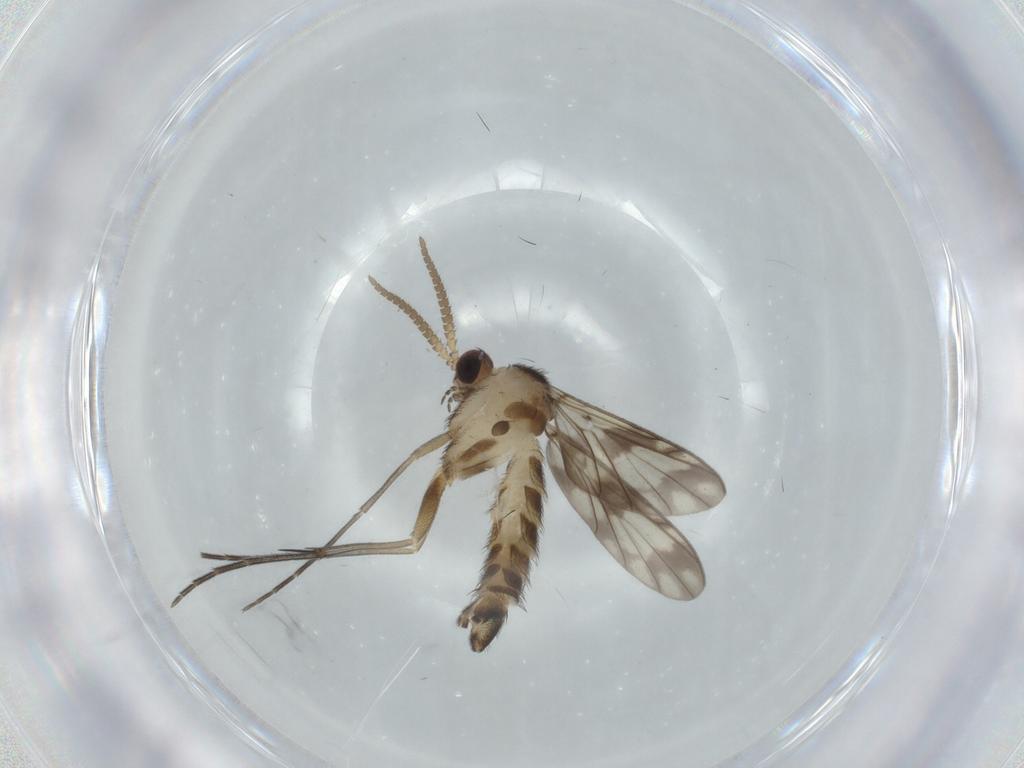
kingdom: Animalia
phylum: Arthropoda
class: Insecta
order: Diptera
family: Keroplatidae
